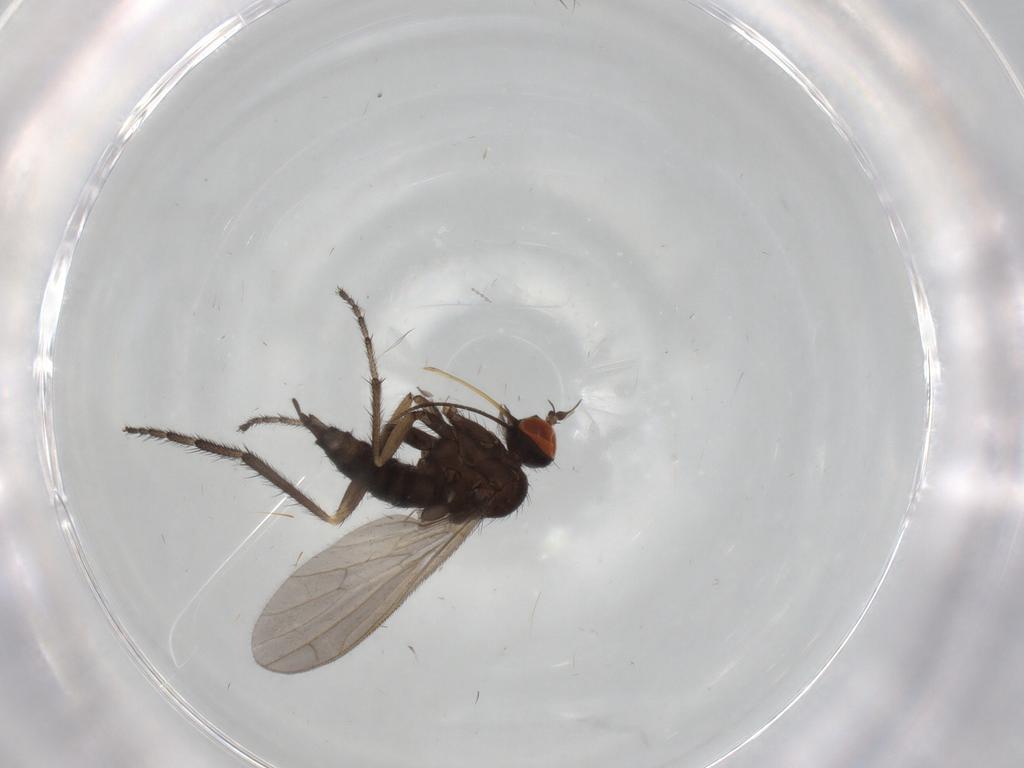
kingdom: Animalia
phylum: Arthropoda
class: Insecta
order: Diptera
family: Empididae
